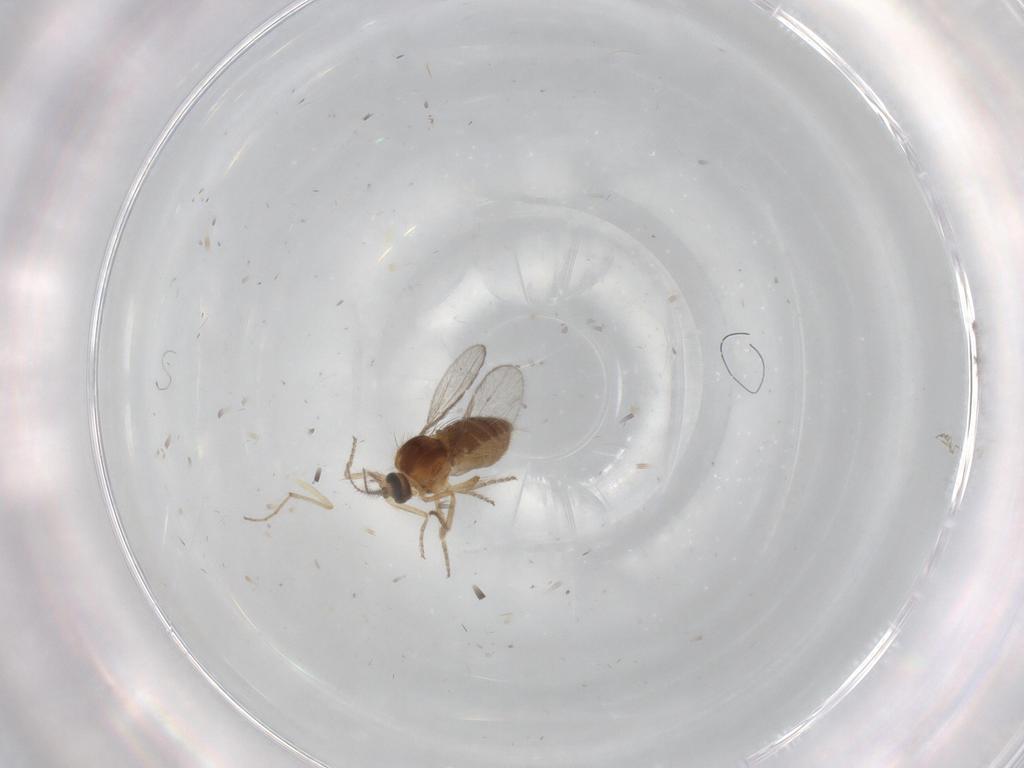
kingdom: Animalia
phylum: Arthropoda
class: Insecta
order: Diptera
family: Ceratopogonidae
